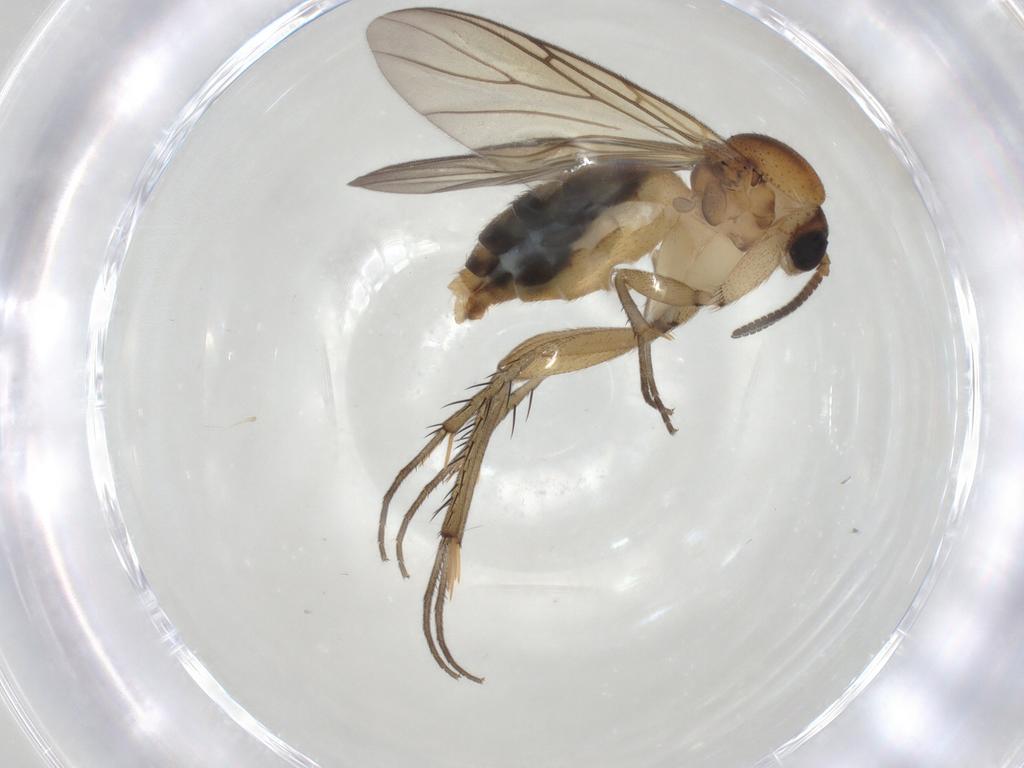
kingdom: Animalia
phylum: Arthropoda
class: Insecta
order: Diptera
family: Mycetophilidae
